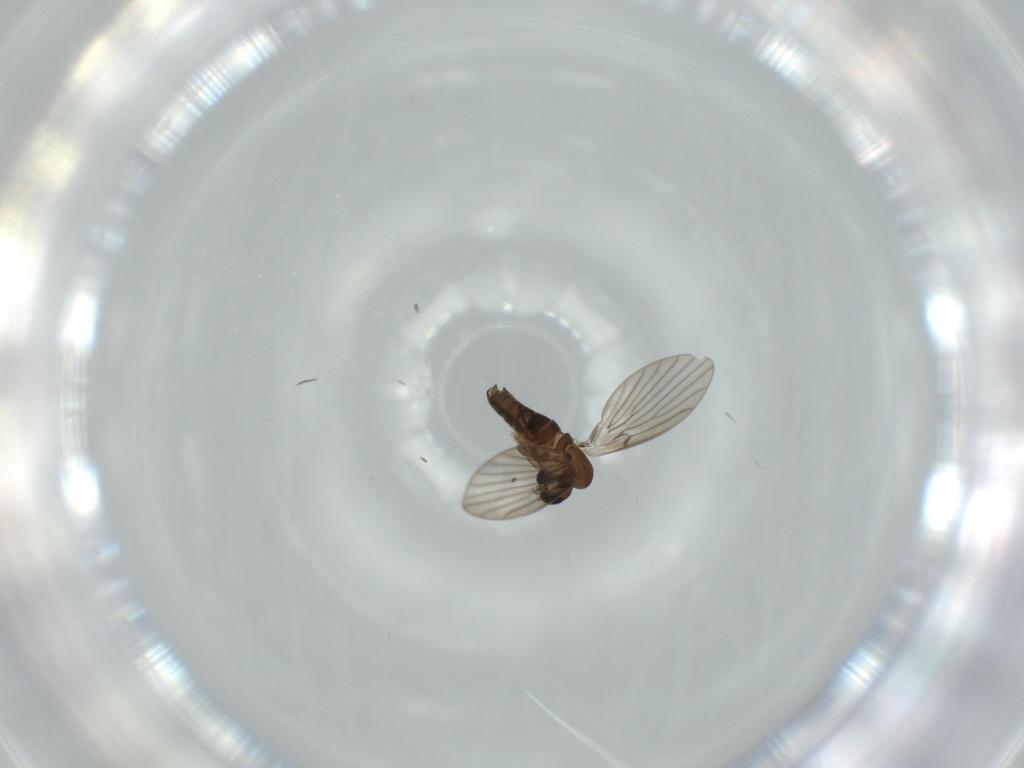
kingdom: Animalia
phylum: Arthropoda
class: Insecta
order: Diptera
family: Psychodidae
